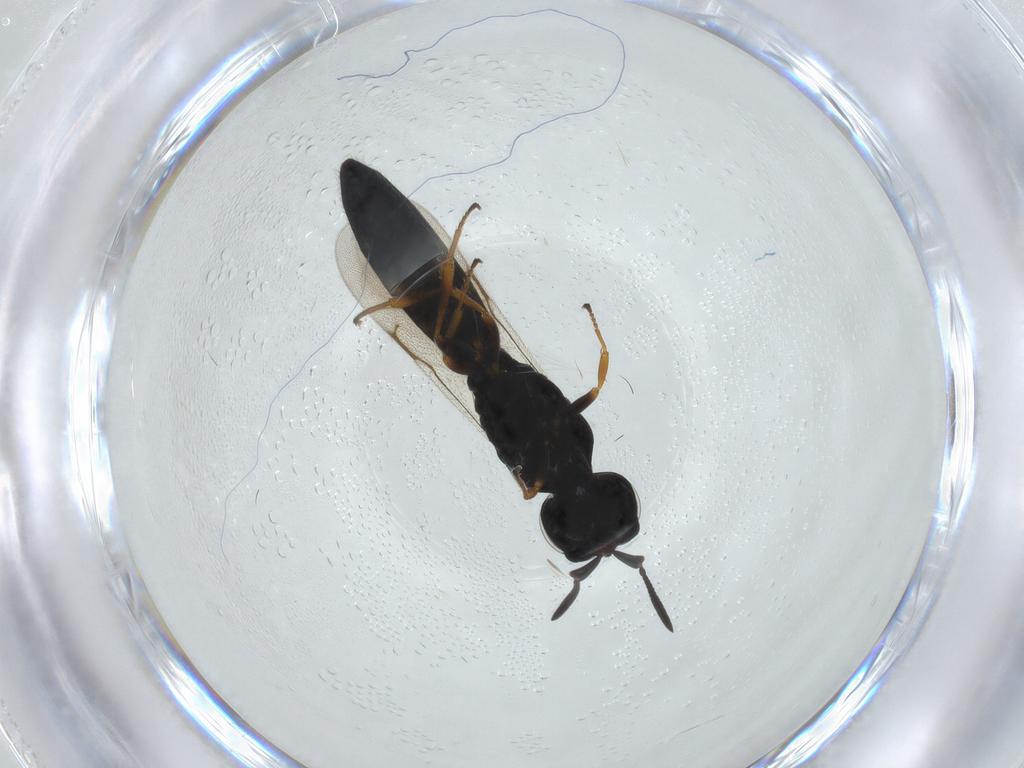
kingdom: Animalia
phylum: Arthropoda
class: Insecta
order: Hymenoptera
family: Scelionidae
